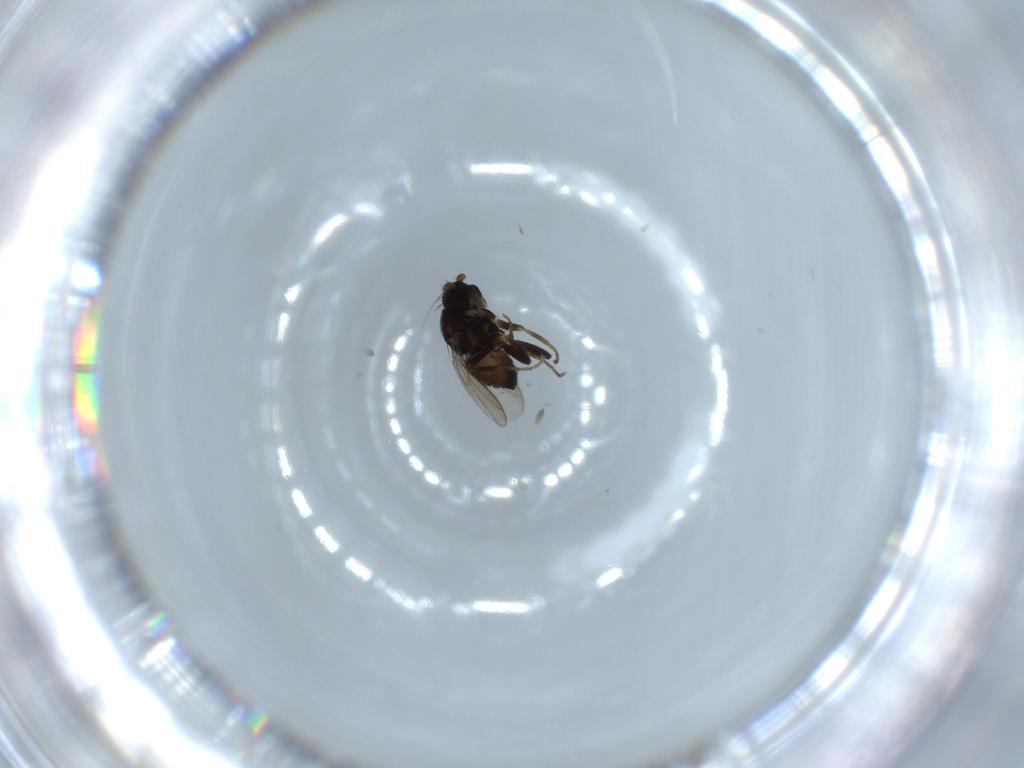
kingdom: Animalia
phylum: Arthropoda
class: Insecta
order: Diptera
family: Sphaeroceridae
